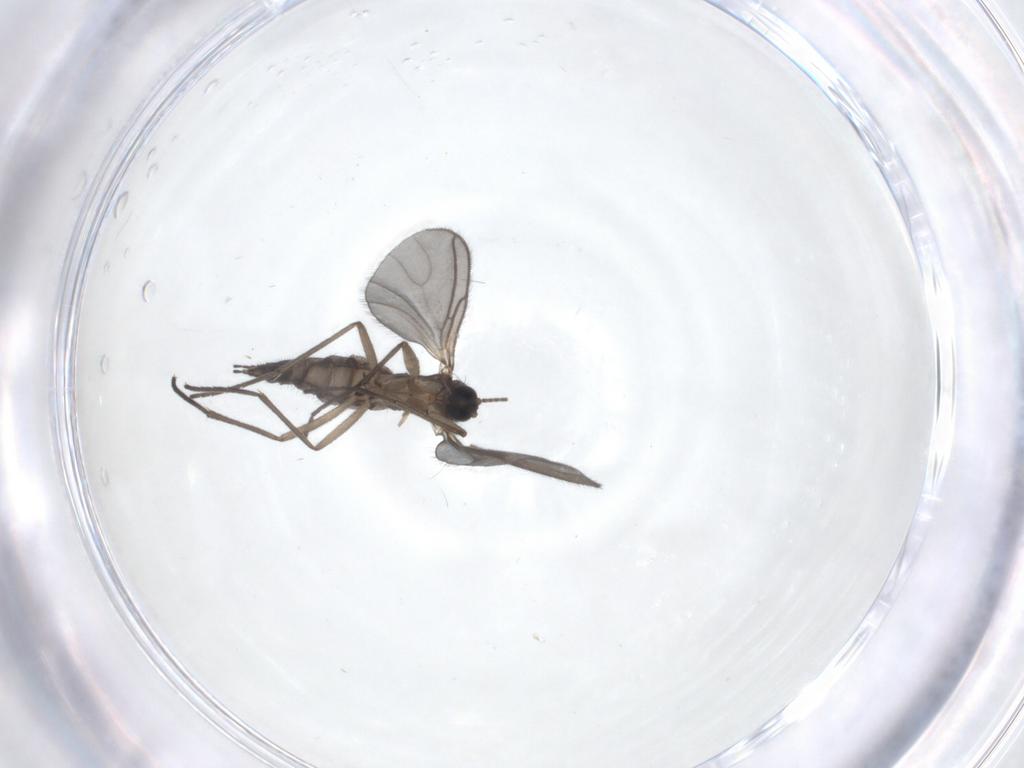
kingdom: Animalia
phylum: Arthropoda
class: Insecta
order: Diptera
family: Sciaridae
